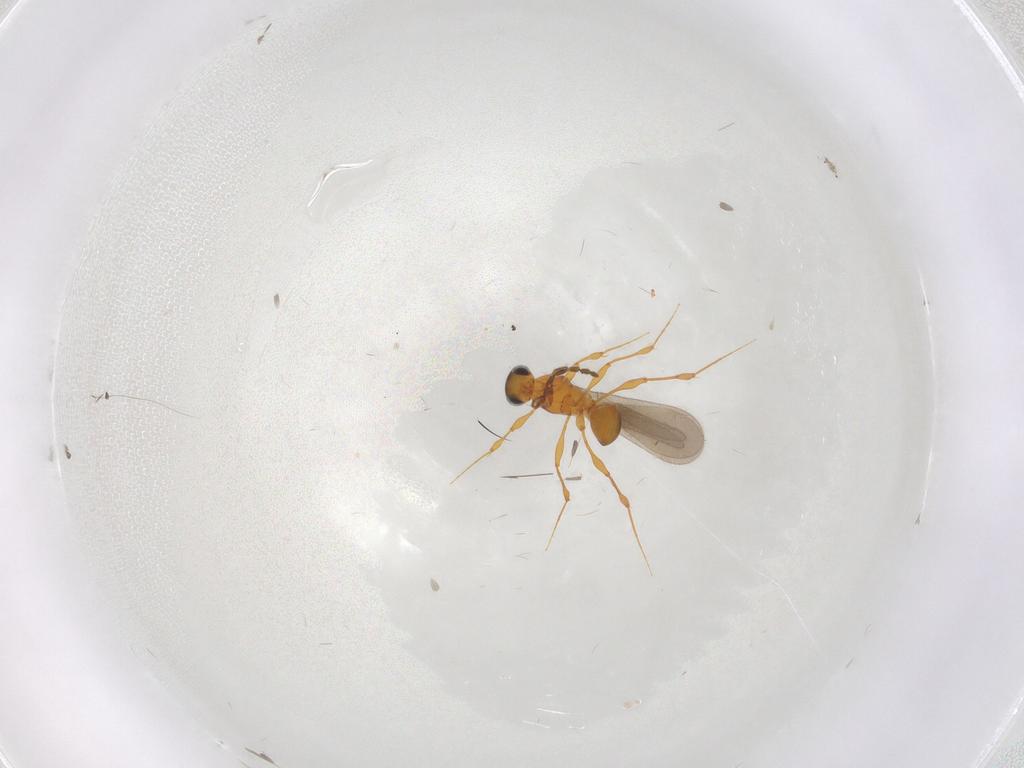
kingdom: Animalia
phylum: Arthropoda
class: Insecta
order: Hymenoptera
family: Platygastridae
